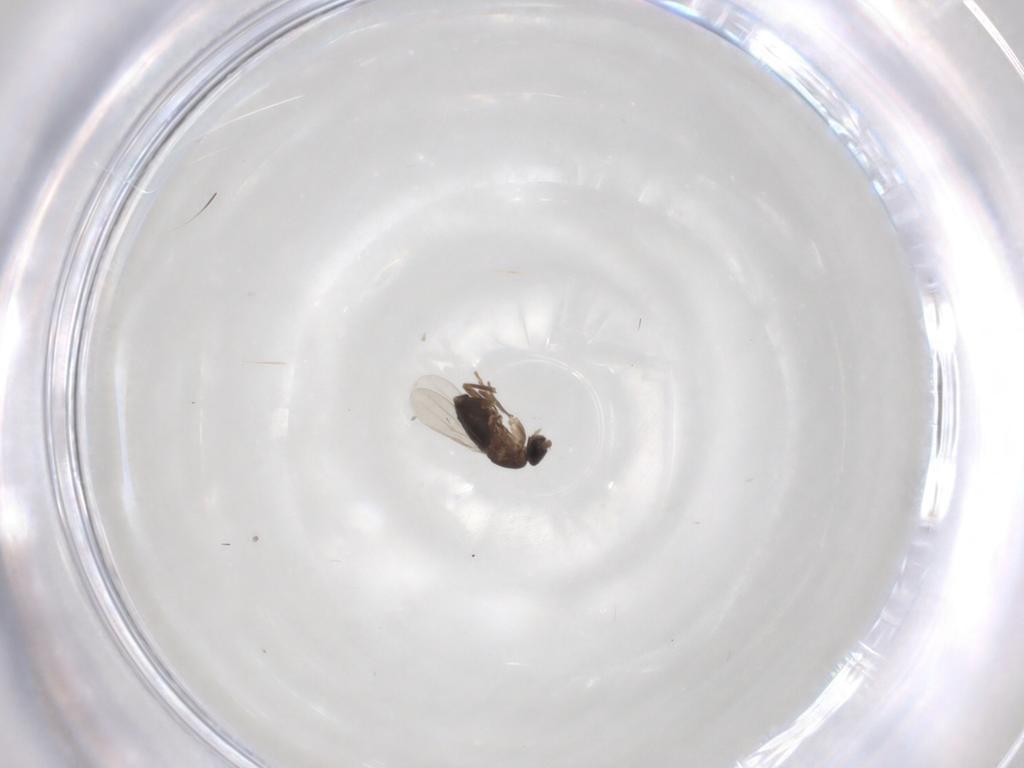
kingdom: Animalia
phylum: Arthropoda
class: Insecta
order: Diptera
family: Phoridae
